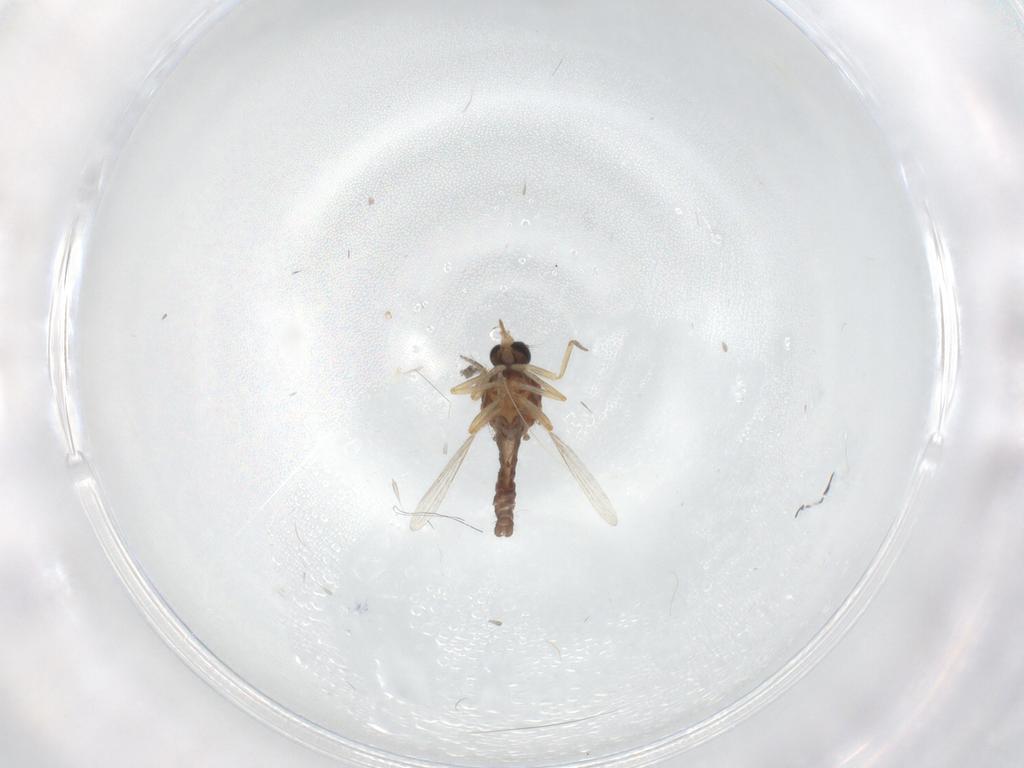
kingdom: Animalia
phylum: Arthropoda
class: Insecta
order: Diptera
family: Ceratopogonidae
